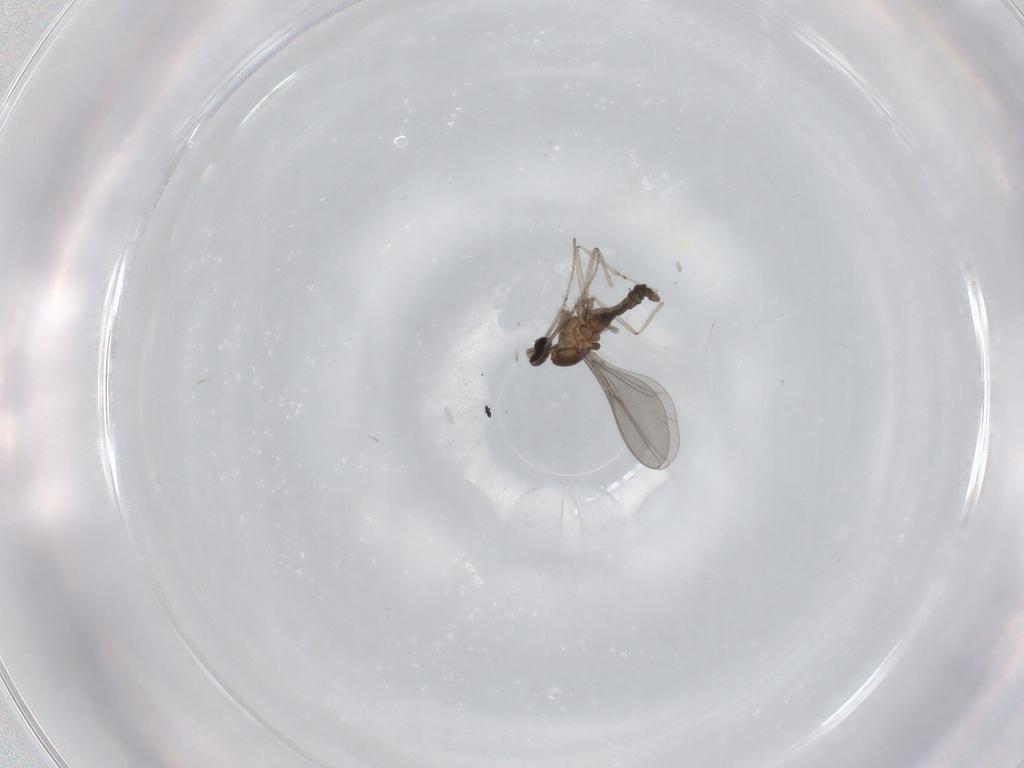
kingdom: Animalia
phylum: Arthropoda
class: Insecta
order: Diptera
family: Cecidomyiidae
